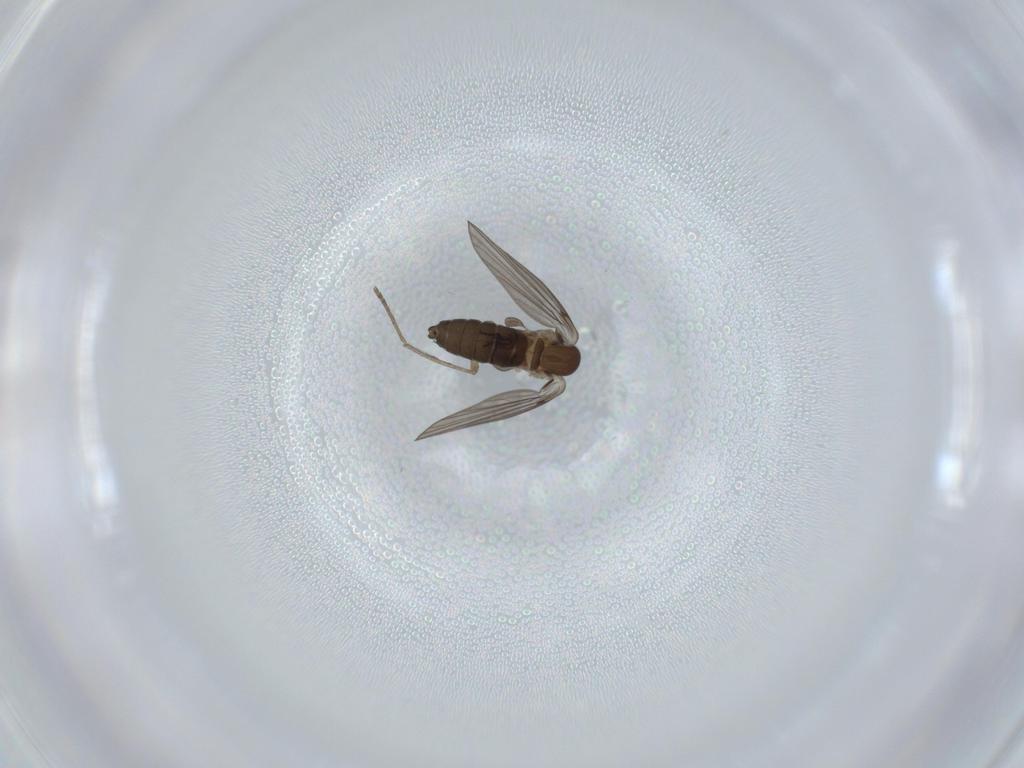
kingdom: Animalia
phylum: Arthropoda
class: Insecta
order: Diptera
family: Psychodidae
